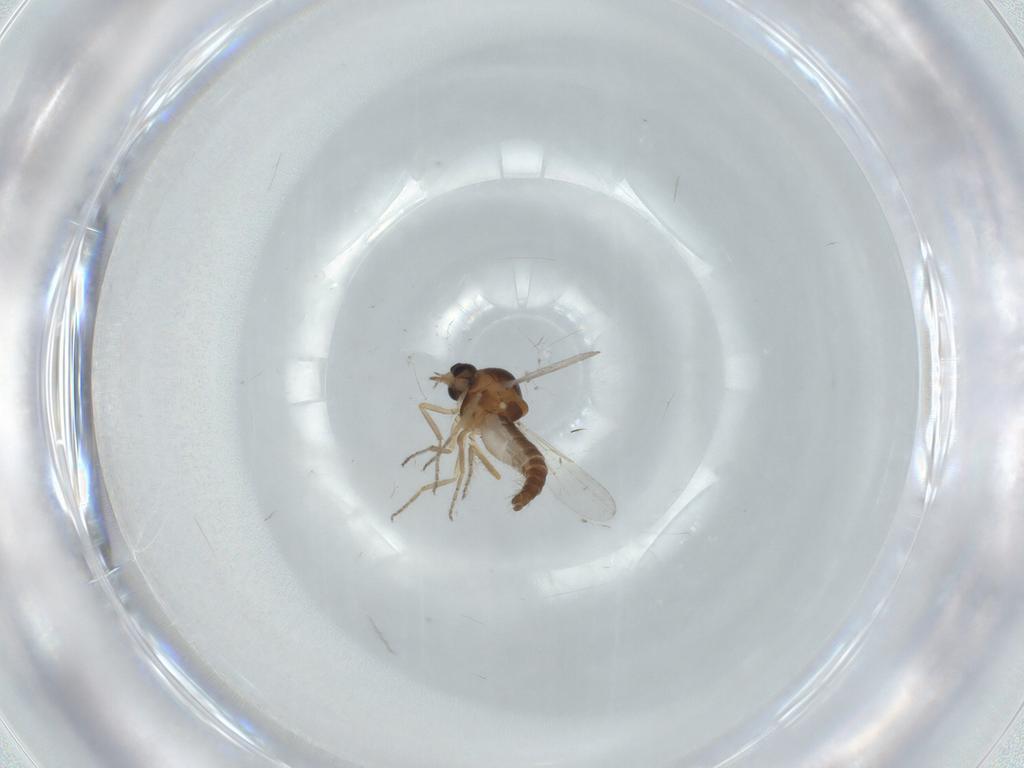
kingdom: Animalia
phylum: Arthropoda
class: Insecta
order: Diptera
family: Ceratopogonidae
